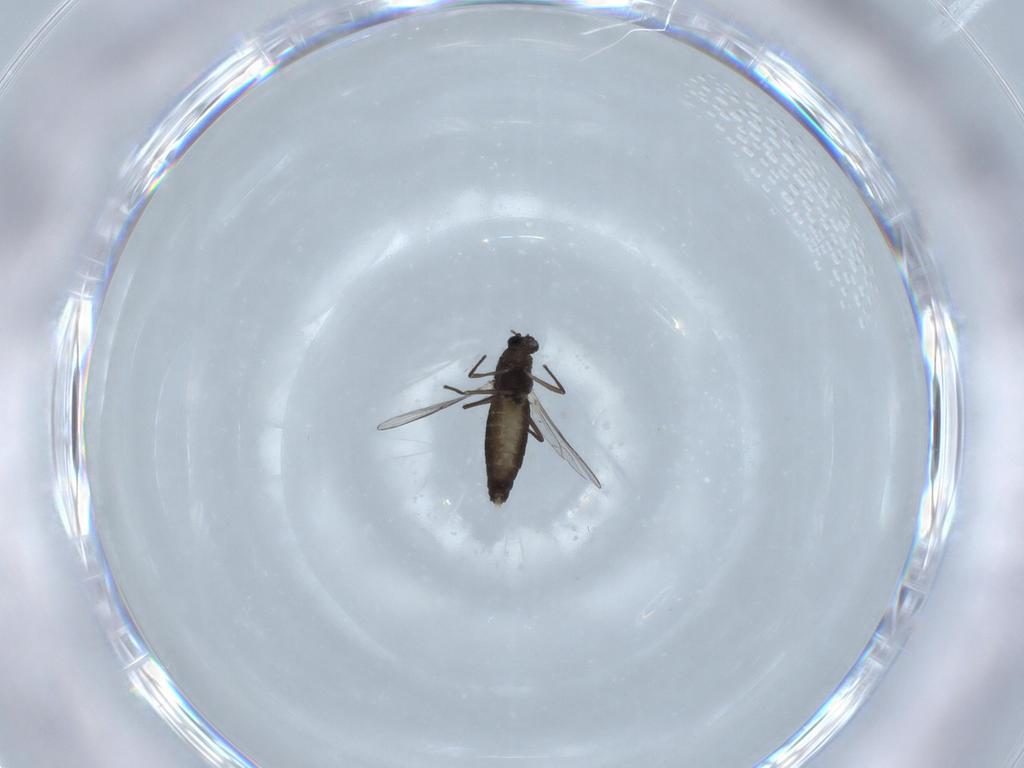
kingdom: Animalia
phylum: Arthropoda
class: Insecta
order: Diptera
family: Chironomidae
